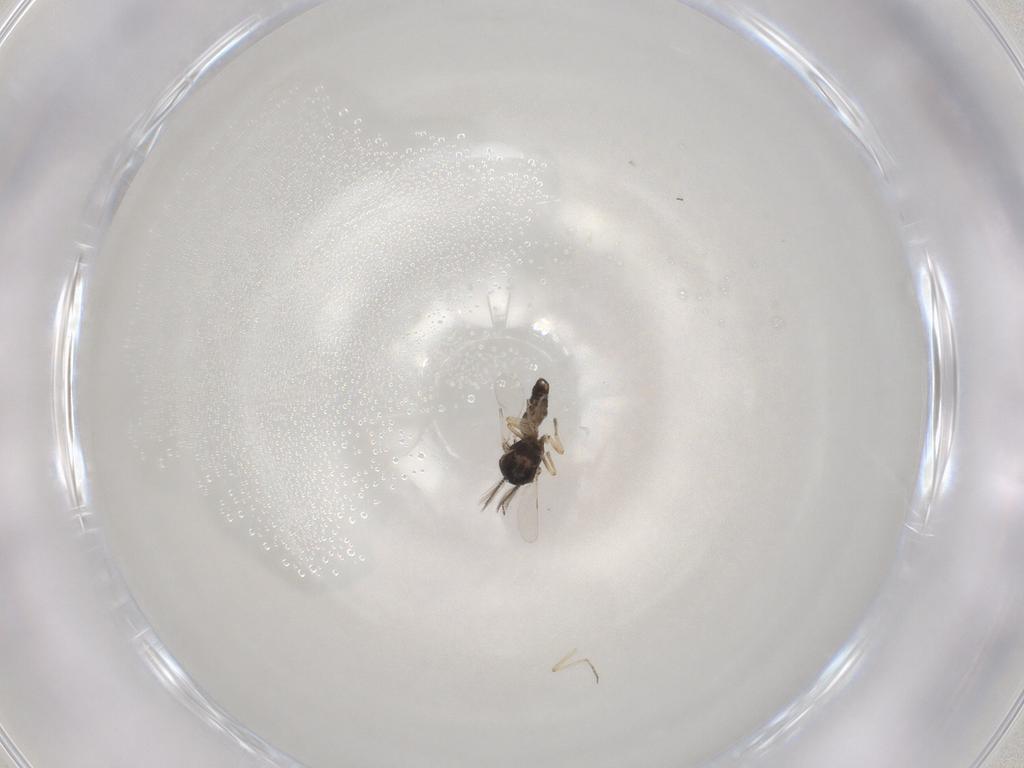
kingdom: Animalia
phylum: Arthropoda
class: Insecta
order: Diptera
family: Ceratopogonidae
